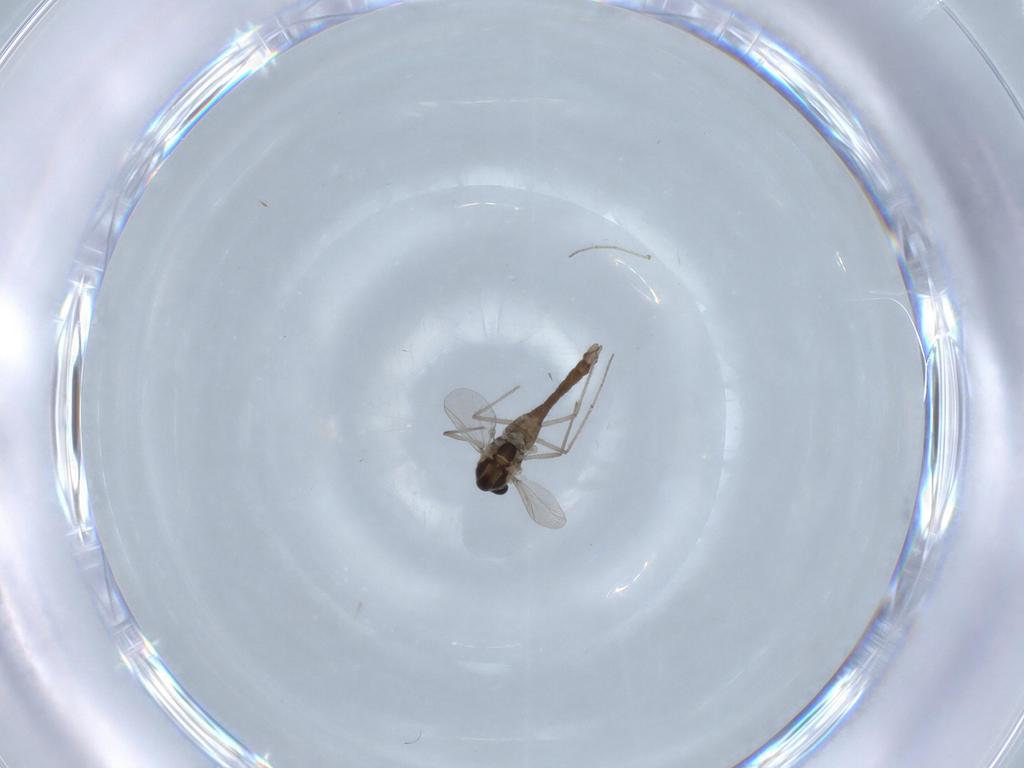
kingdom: Animalia
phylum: Arthropoda
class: Insecta
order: Diptera
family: Chironomidae
